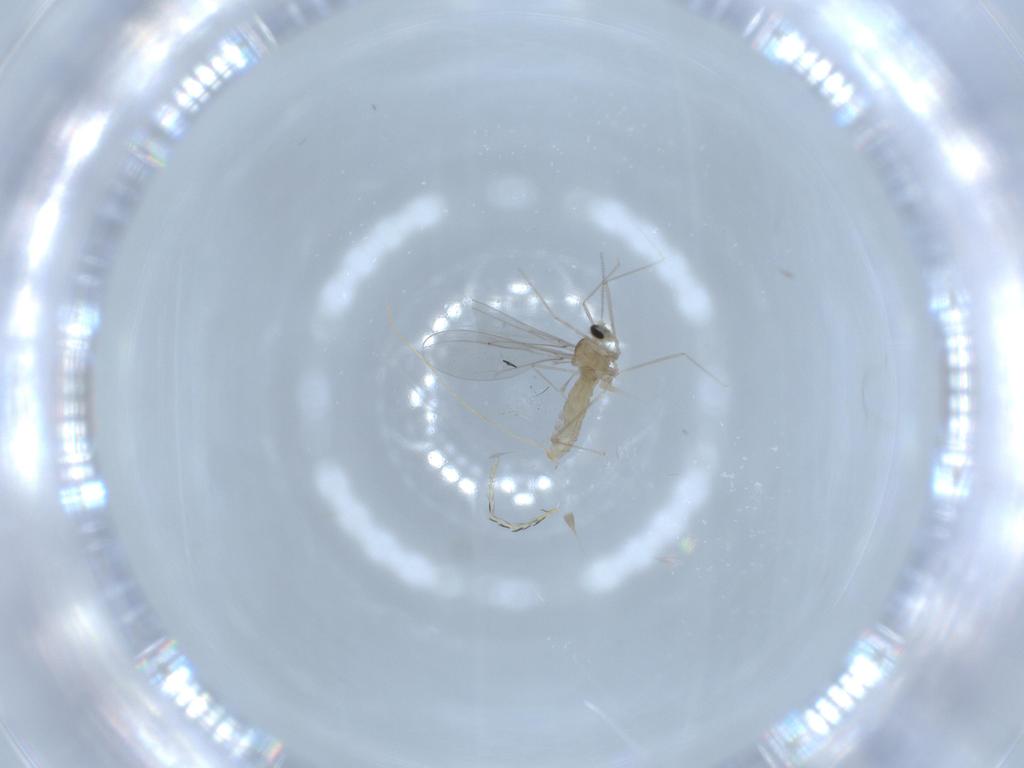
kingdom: Animalia
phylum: Arthropoda
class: Insecta
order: Diptera
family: Cecidomyiidae
